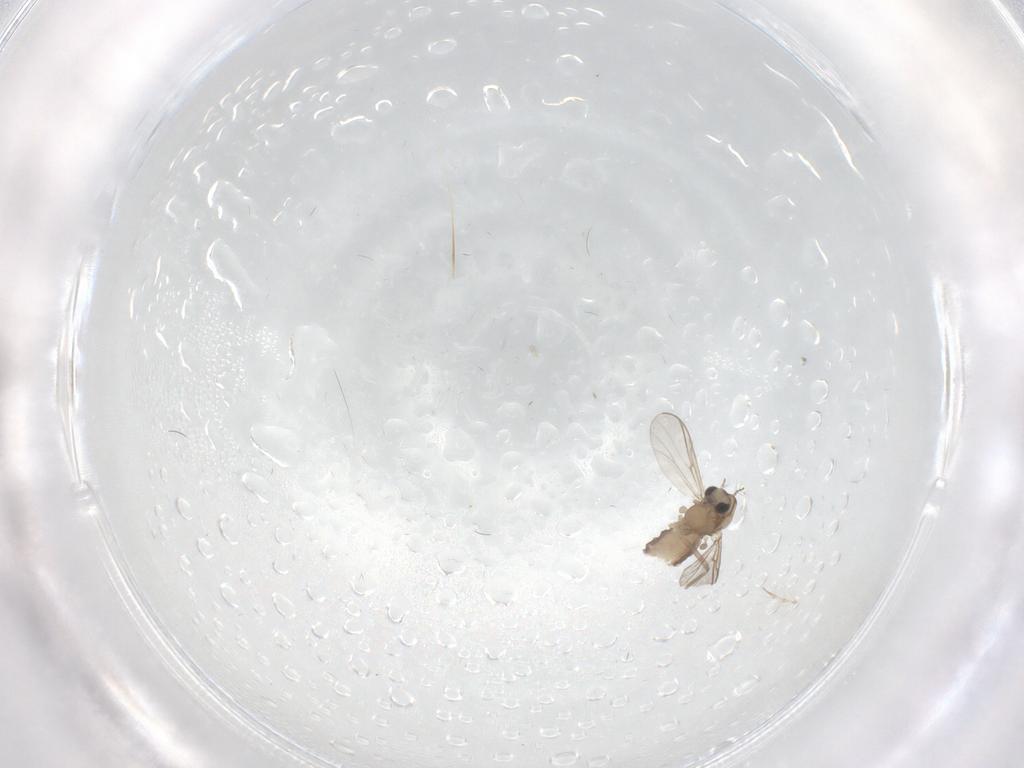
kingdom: Animalia
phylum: Arthropoda
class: Insecta
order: Diptera
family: Chironomidae
